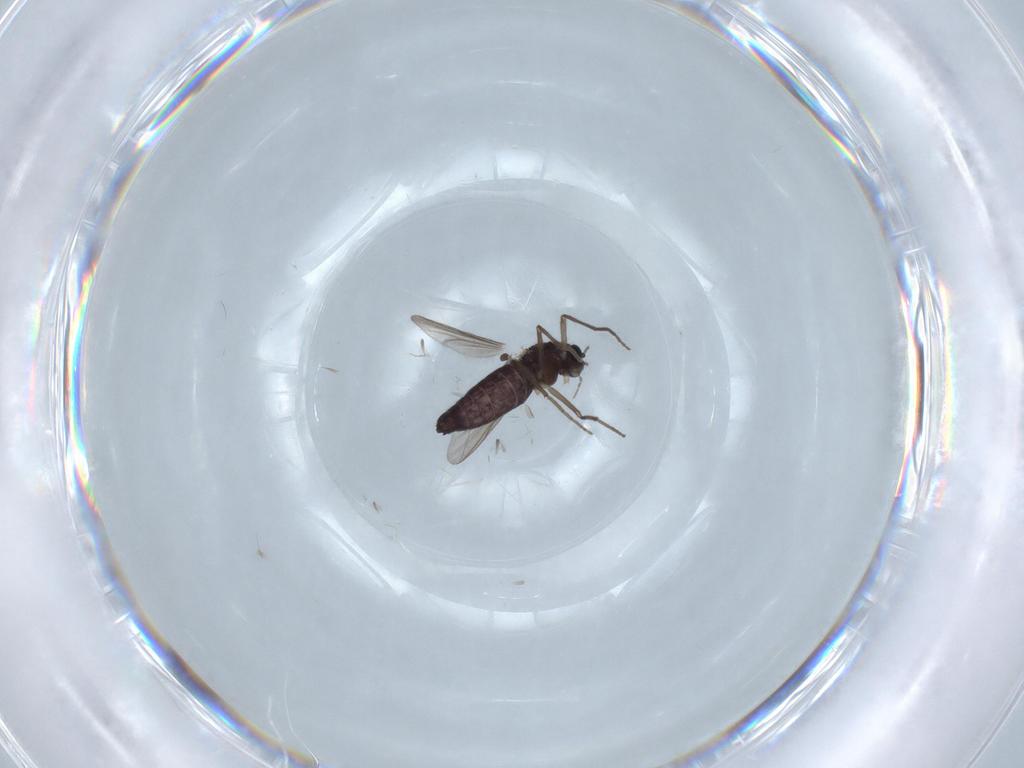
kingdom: Animalia
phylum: Arthropoda
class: Insecta
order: Diptera
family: Chironomidae
